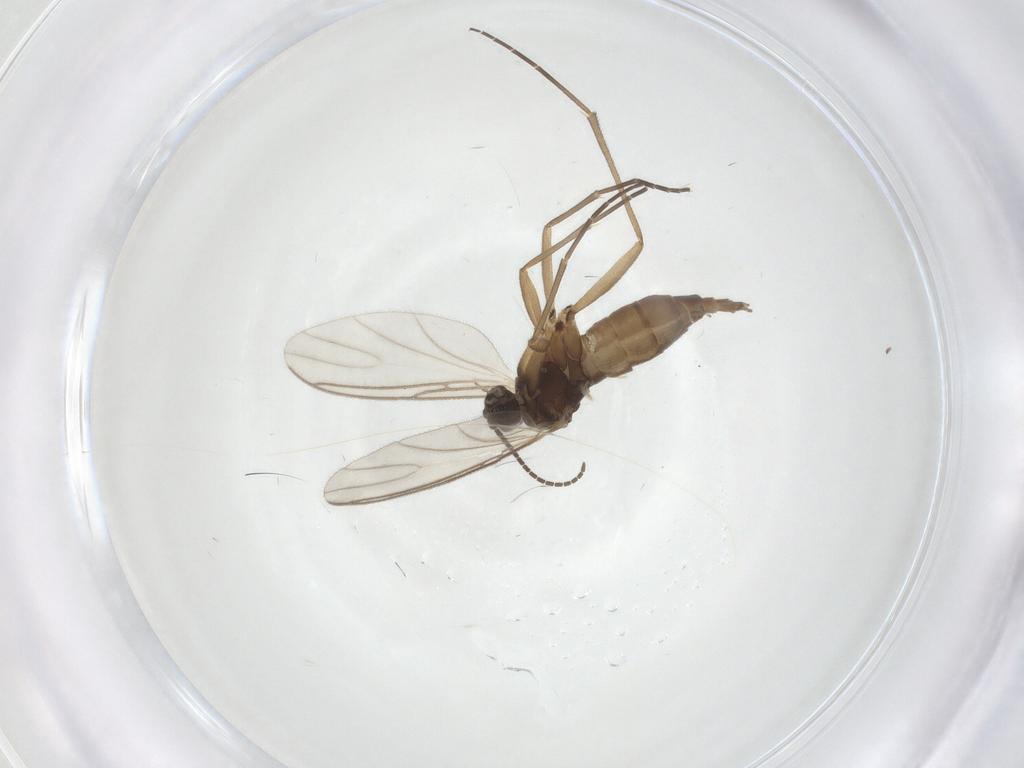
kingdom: Animalia
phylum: Arthropoda
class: Insecta
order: Diptera
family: Sciaridae
